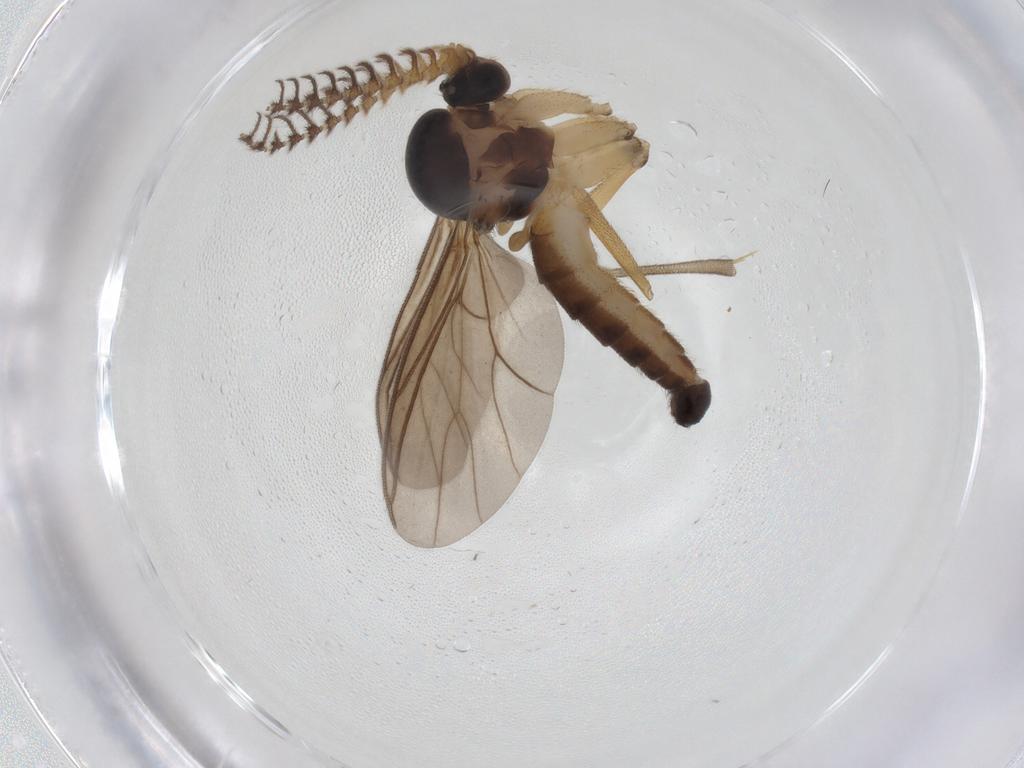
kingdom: Animalia
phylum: Arthropoda
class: Insecta
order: Diptera
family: Mycetophilidae
